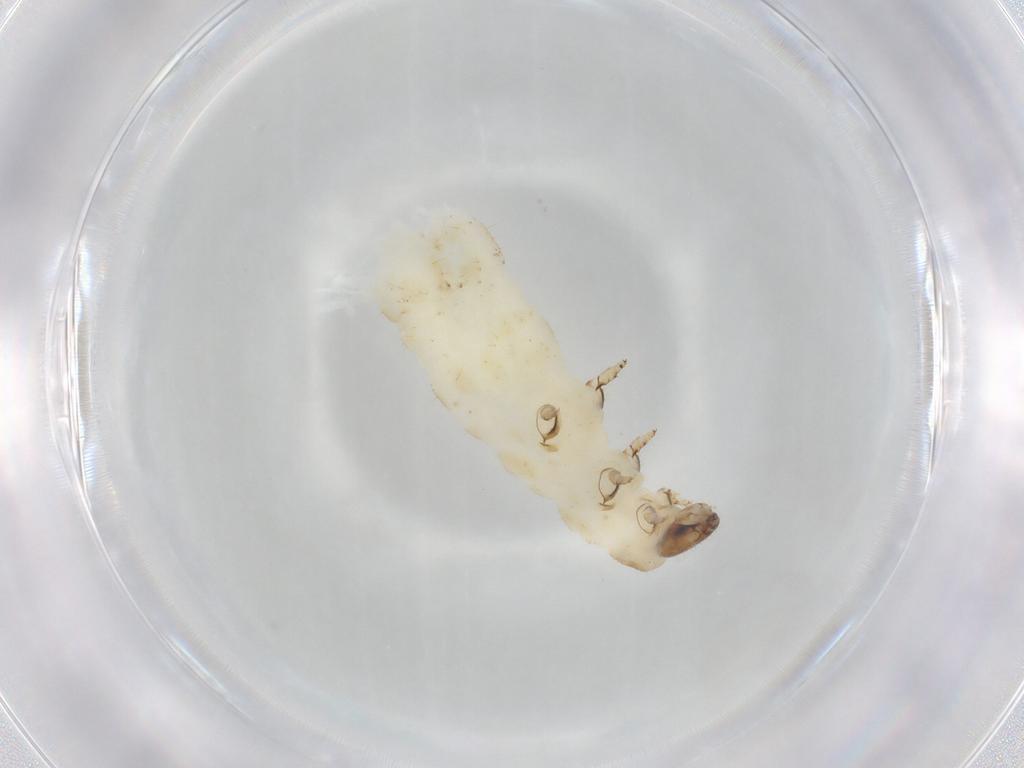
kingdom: Animalia
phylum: Arthropoda
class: Insecta
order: Coleoptera
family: Chrysomelidae
